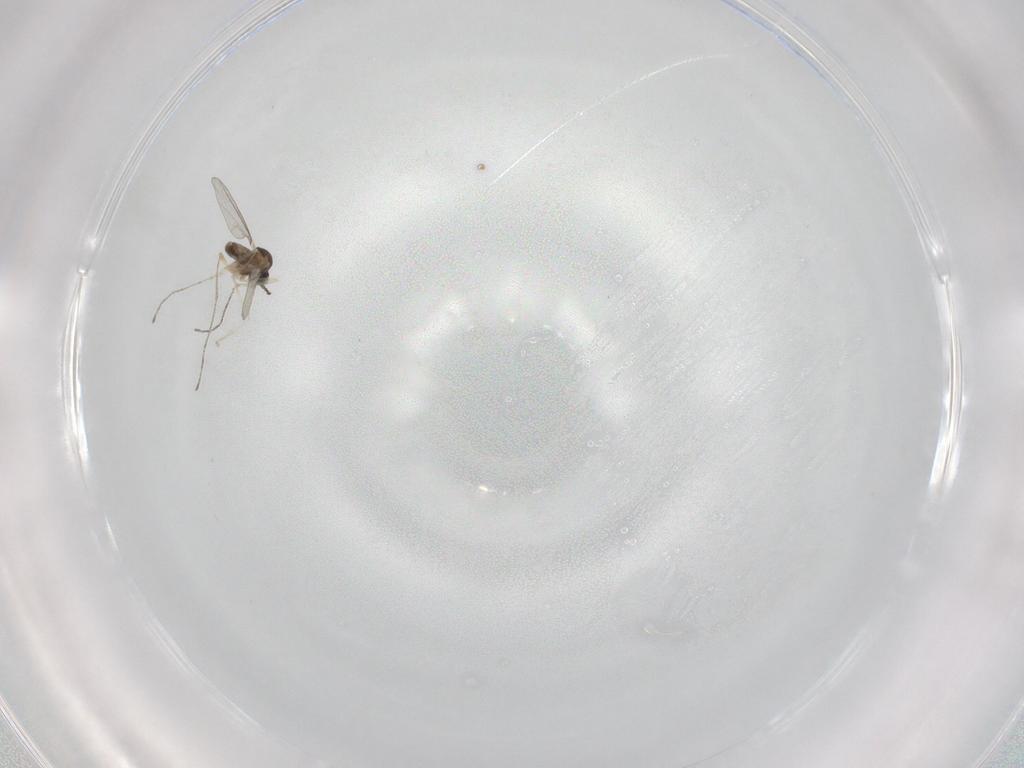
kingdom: Animalia
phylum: Arthropoda
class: Insecta
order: Diptera
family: Cecidomyiidae
